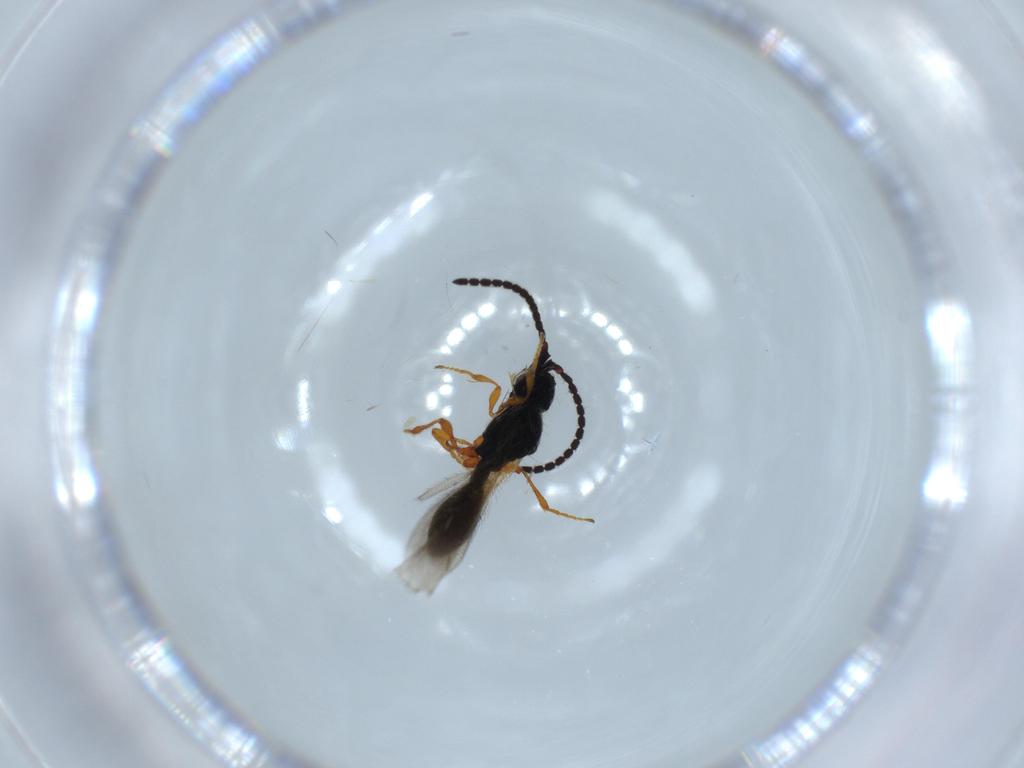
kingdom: Animalia
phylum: Arthropoda
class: Insecta
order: Hymenoptera
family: Diapriidae
